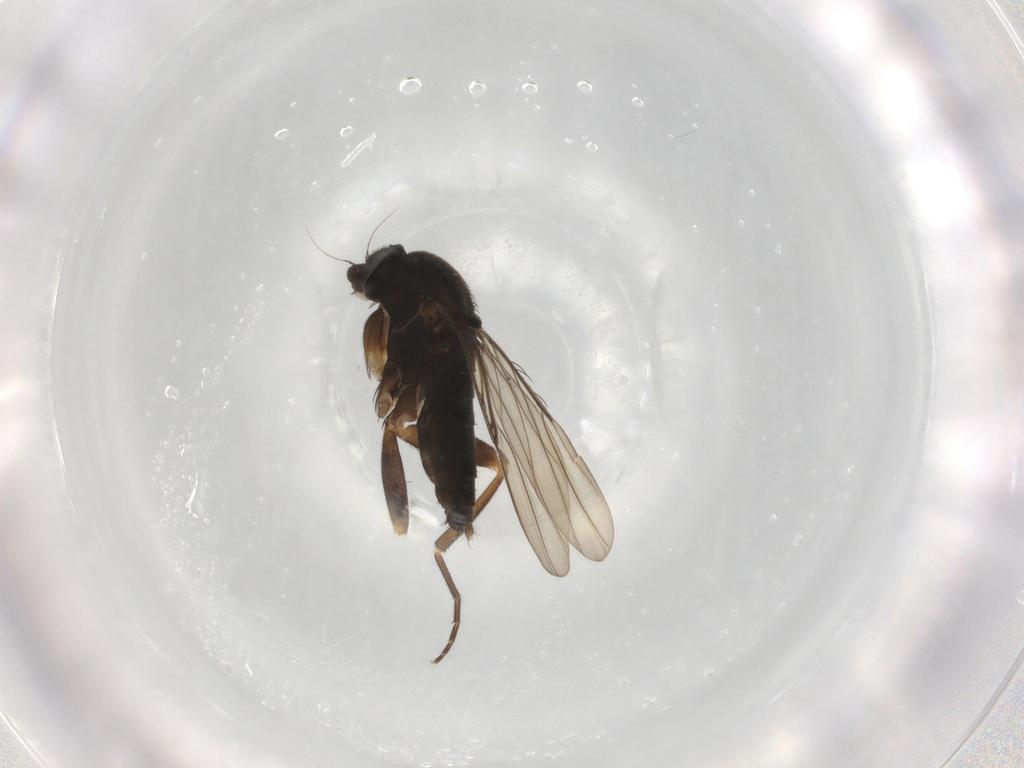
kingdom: Animalia
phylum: Arthropoda
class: Insecta
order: Diptera
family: Phoridae
